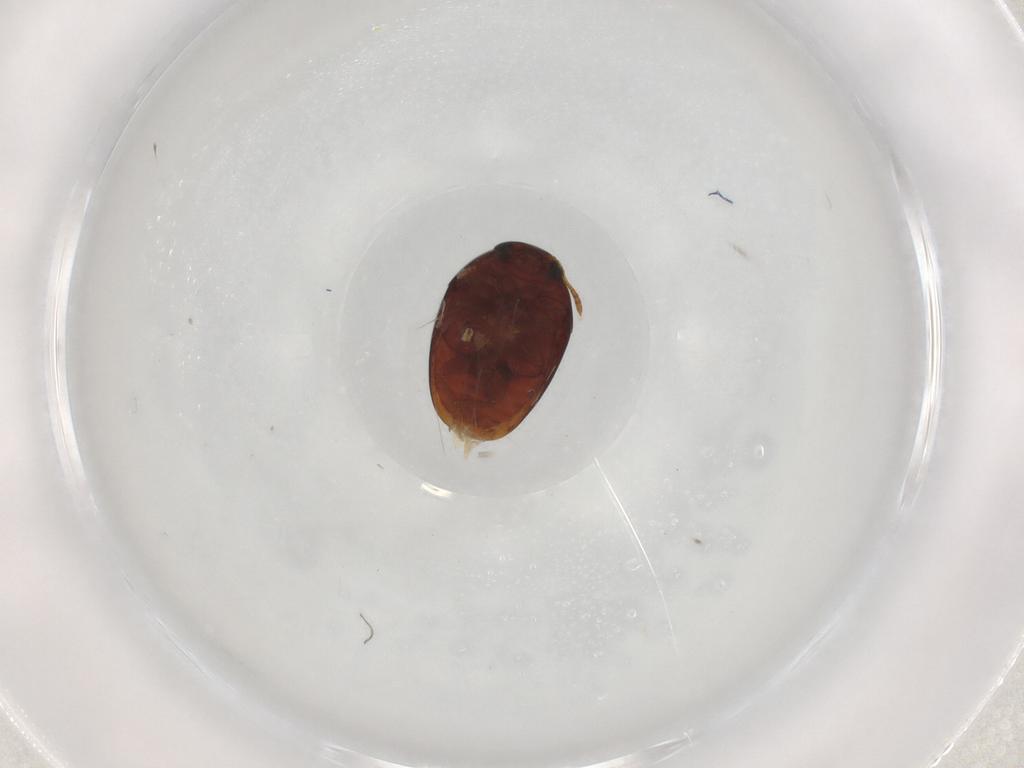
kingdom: Animalia
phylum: Arthropoda
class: Insecta
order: Coleoptera
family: Phalacridae
